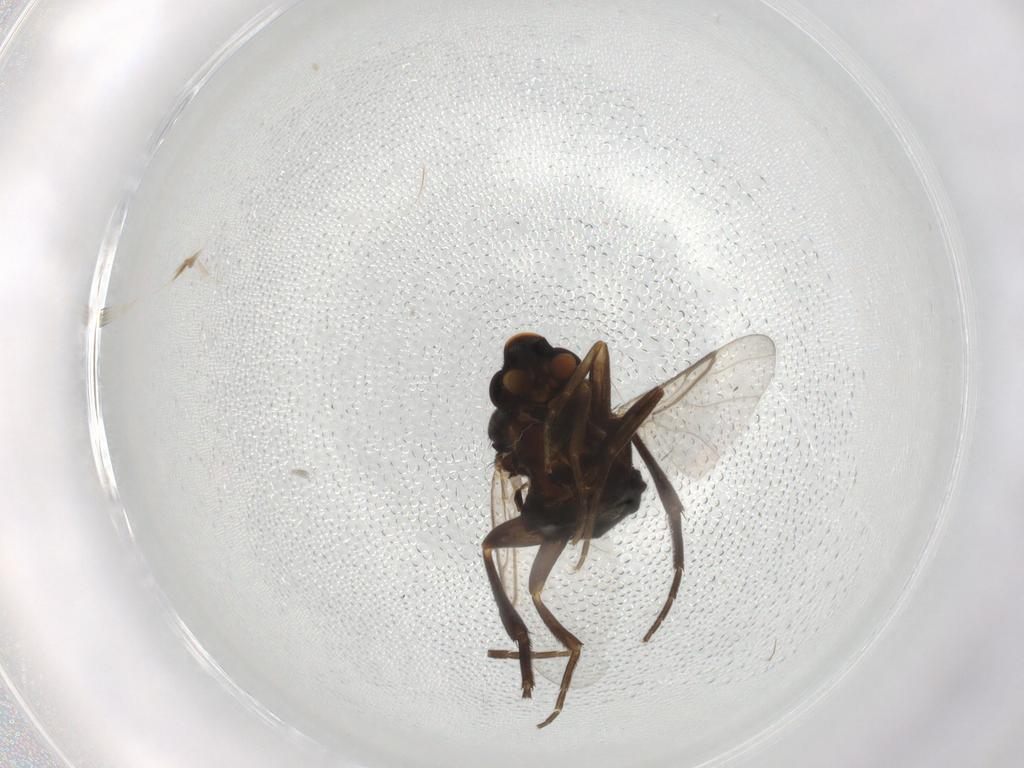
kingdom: Animalia
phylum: Arthropoda
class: Insecta
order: Diptera
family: Phoridae
